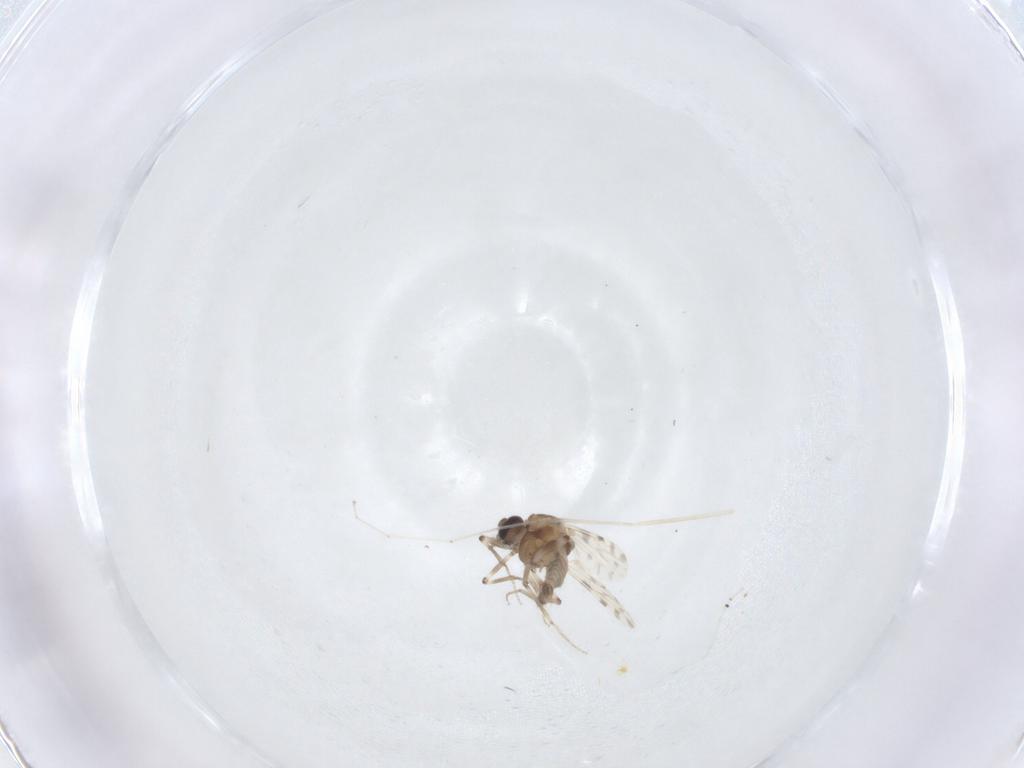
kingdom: Animalia
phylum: Arthropoda
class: Insecta
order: Diptera
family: Cecidomyiidae
